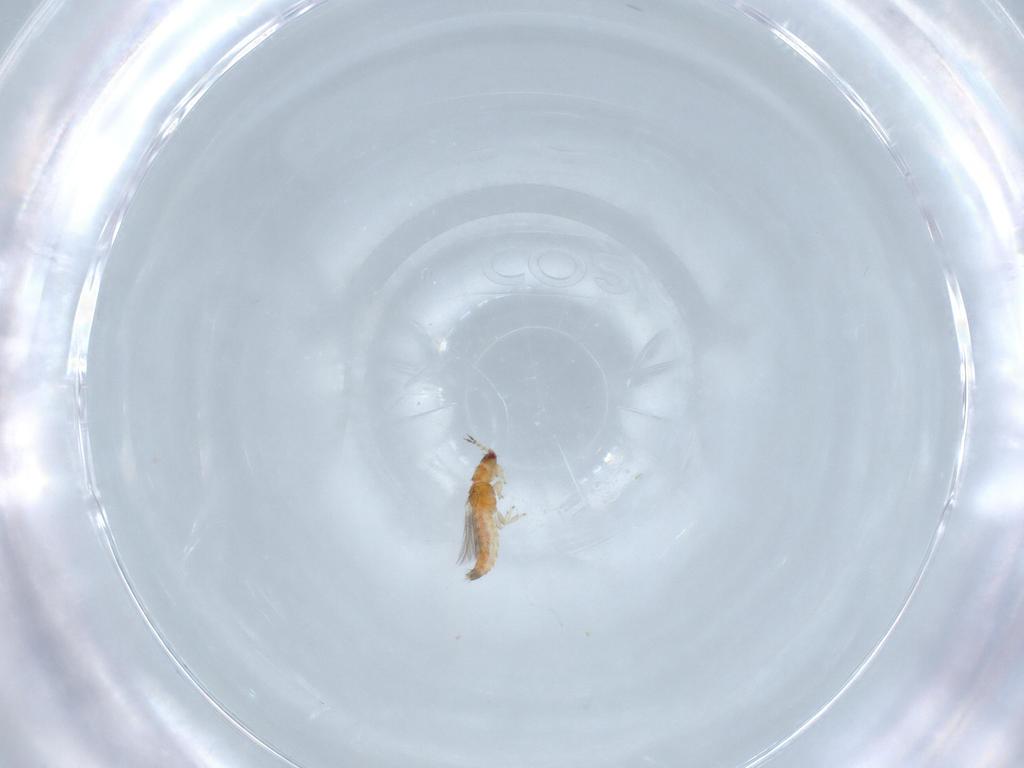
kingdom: Animalia
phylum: Arthropoda
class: Insecta
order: Thysanoptera
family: Thripidae
